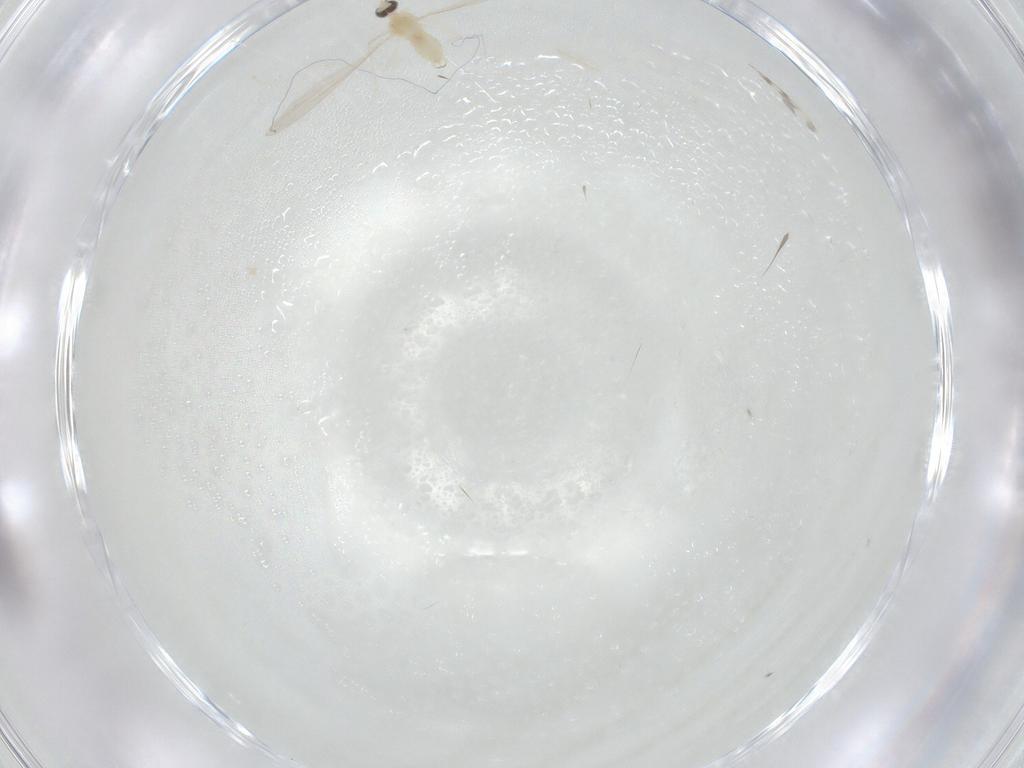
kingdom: Animalia
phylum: Arthropoda
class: Insecta
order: Diptera
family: Cecidomyiidae
